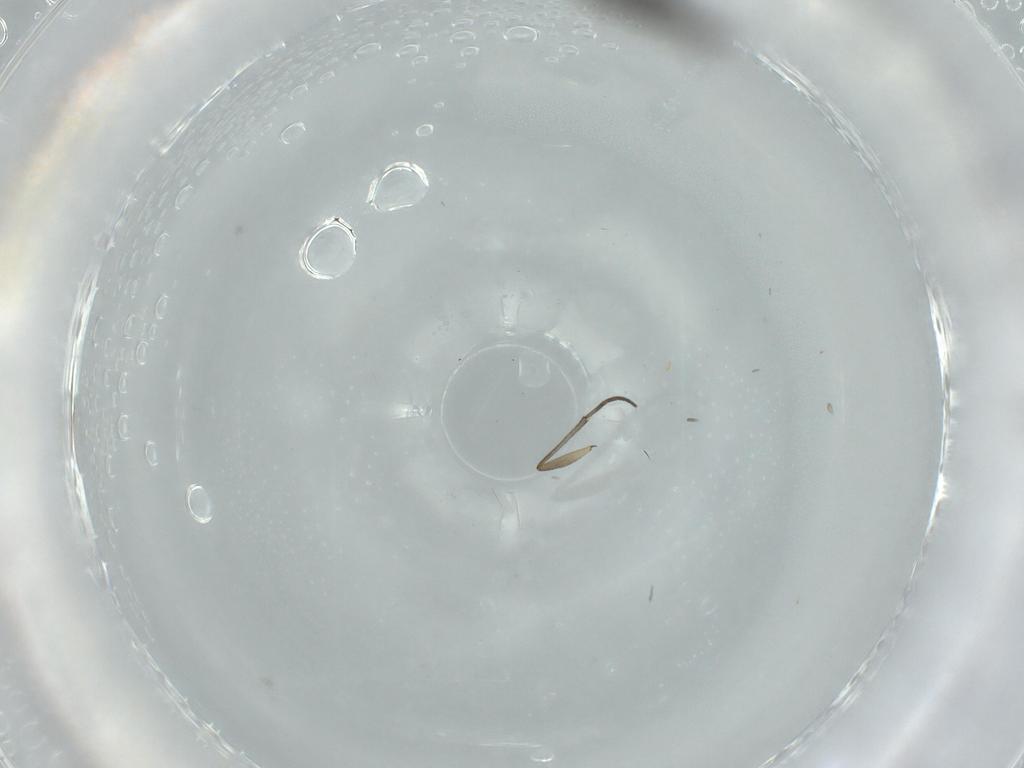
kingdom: Animalia
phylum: Arthropoda
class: Insecta
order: Diptera
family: Sciaridae
